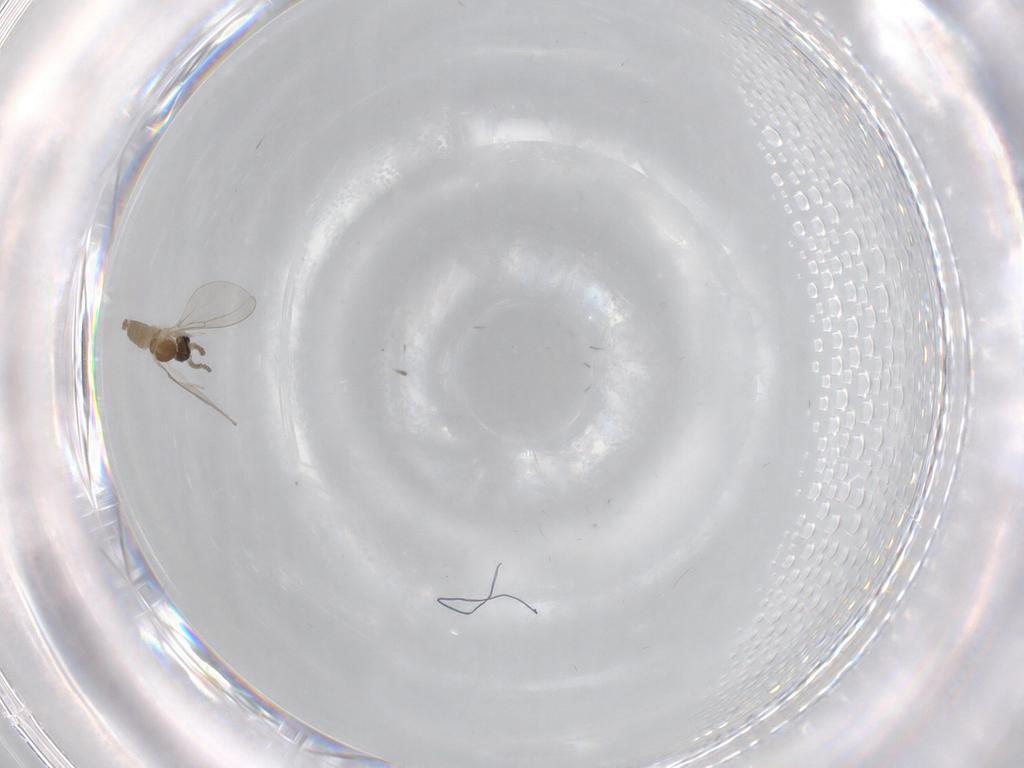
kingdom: Animalia
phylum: Arthropoda
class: Insecta
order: Diptera
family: Cecidomyiidae
